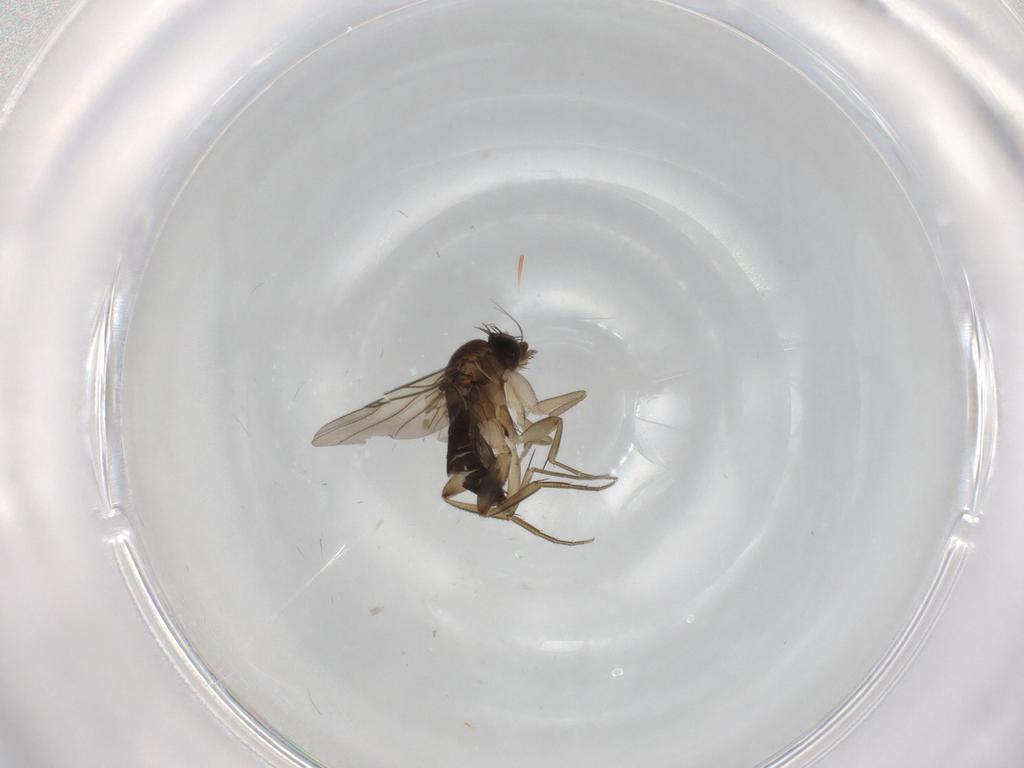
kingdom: Animalia
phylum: Arthropoda
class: Insecta
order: Diptera
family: Phoridae
